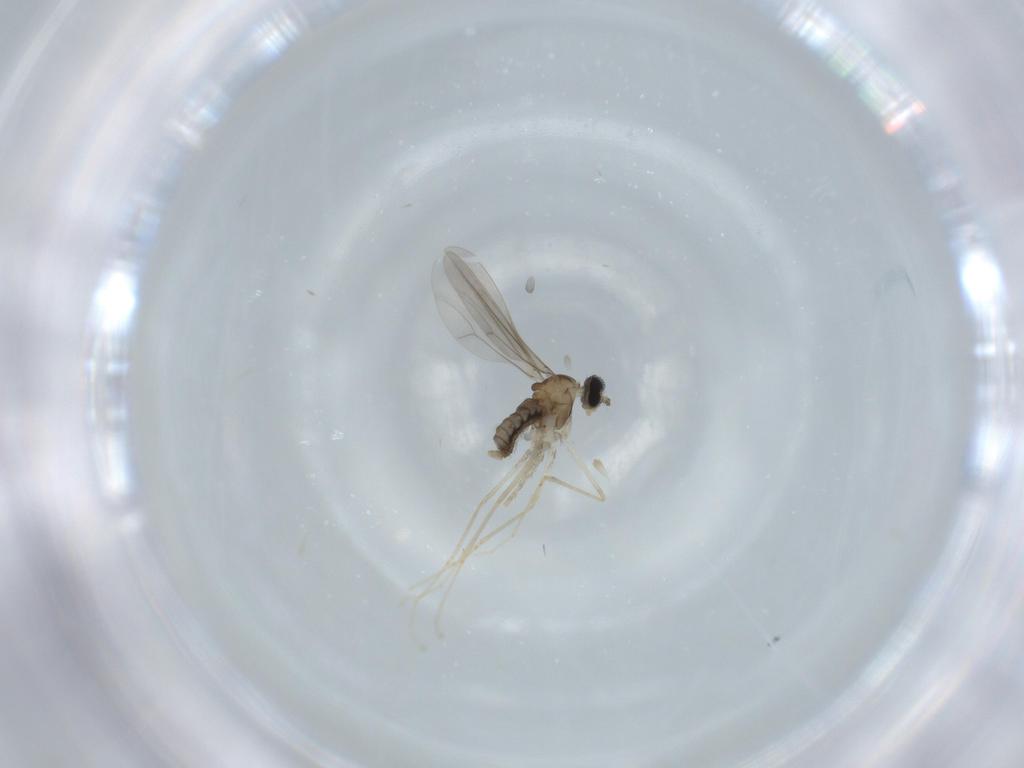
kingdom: Animalia
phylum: Arthropoda
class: Insecta
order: Diptera
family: Cecidomyiidae
